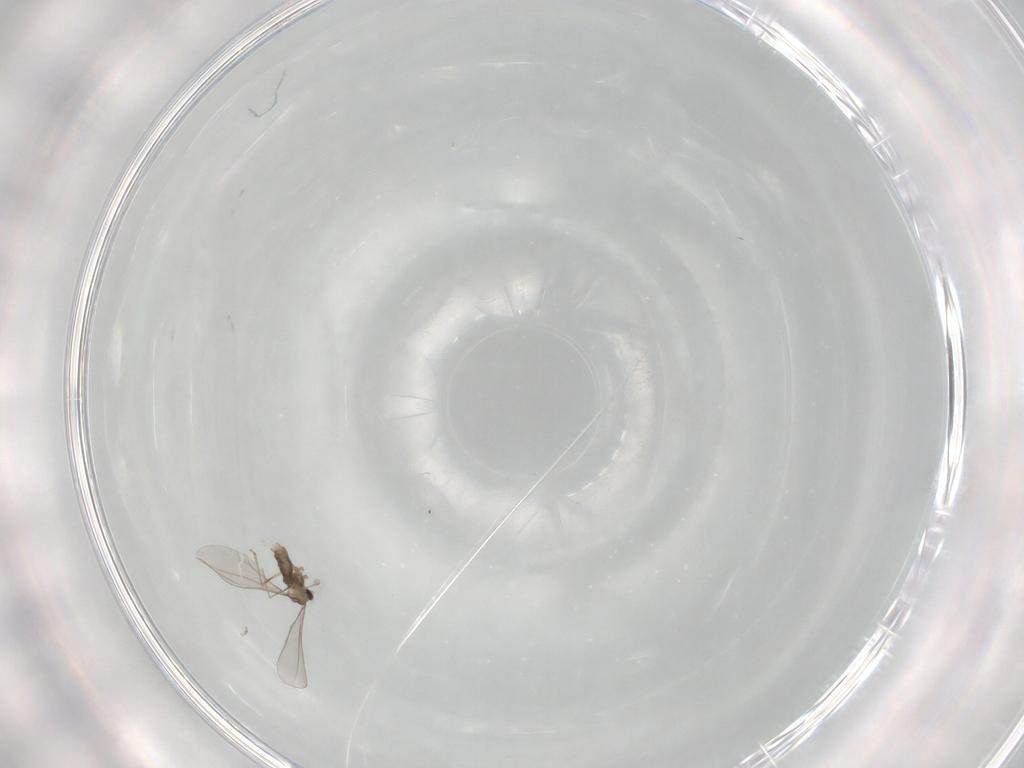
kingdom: Animalia
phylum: Arthropoda
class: Insecta
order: Diptera
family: Cecidomyiidae
